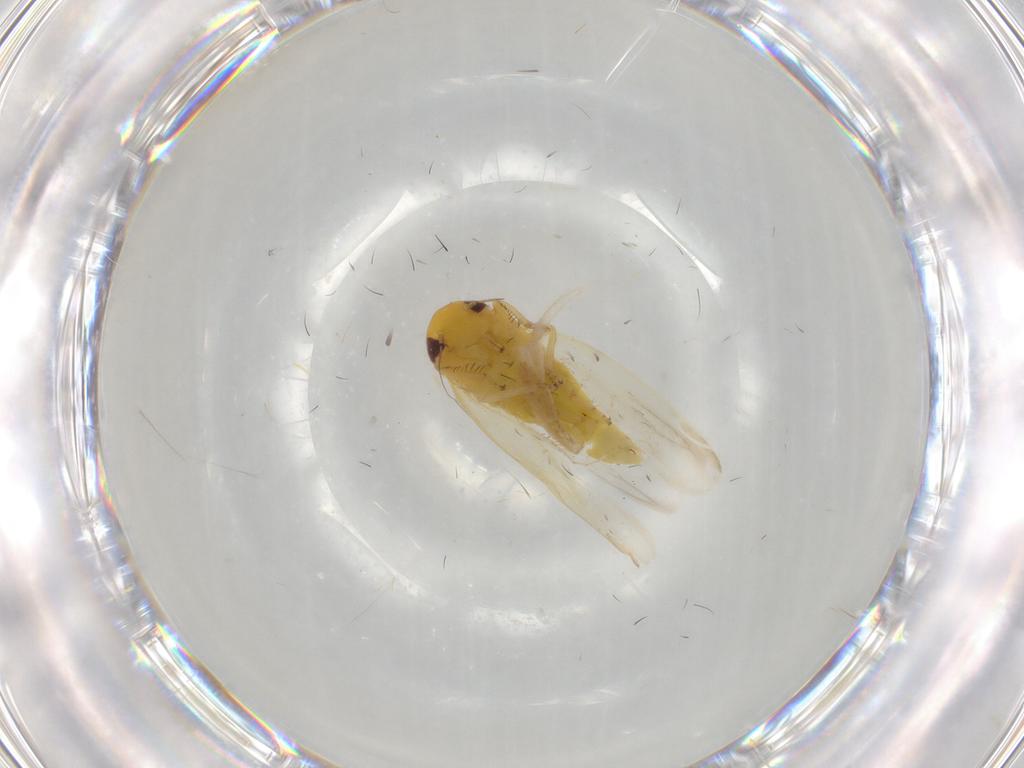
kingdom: Animalia
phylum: Arthropoda
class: Insecta
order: Hemiptera
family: Cicadellidae
